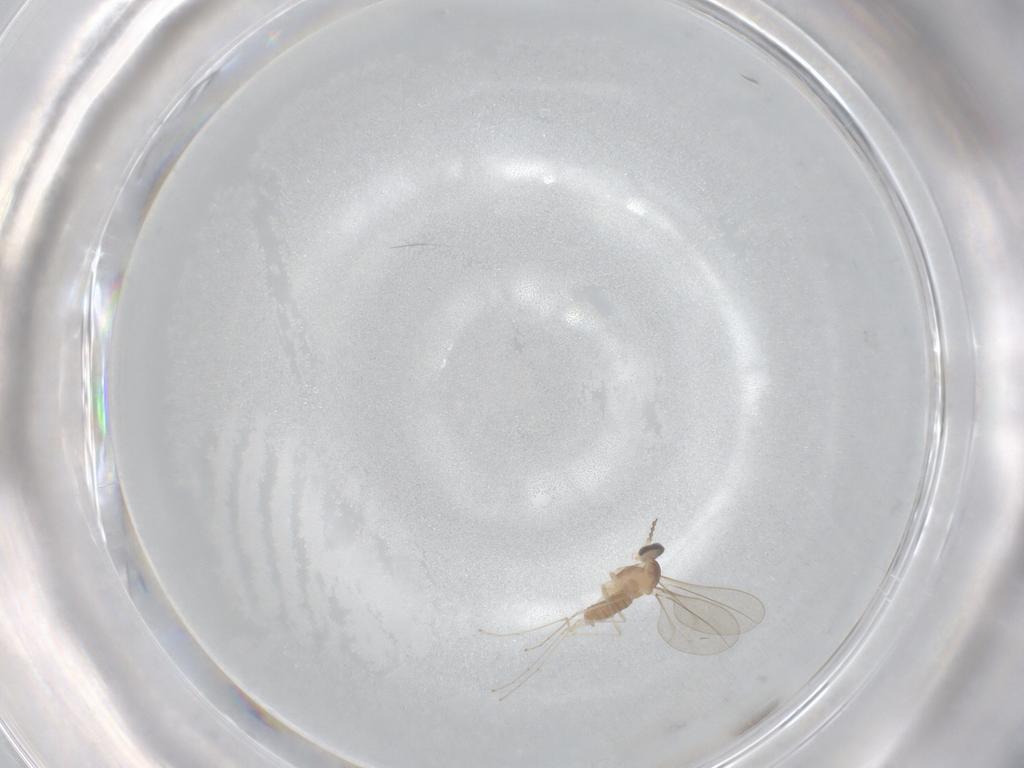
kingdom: Animalia
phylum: Arthropoda
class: Insecta
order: Diptera
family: Cecidomyiidae
